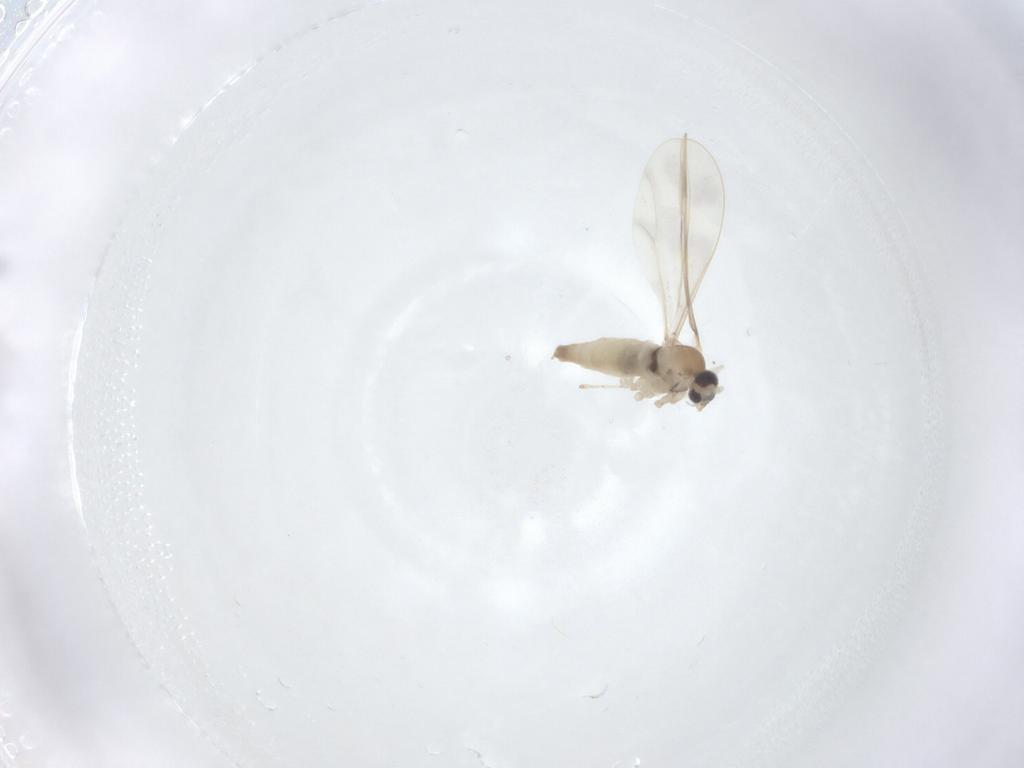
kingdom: Animalia
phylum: Arthropoda
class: Insecta
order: Diptera
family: Cecidomyiidae
